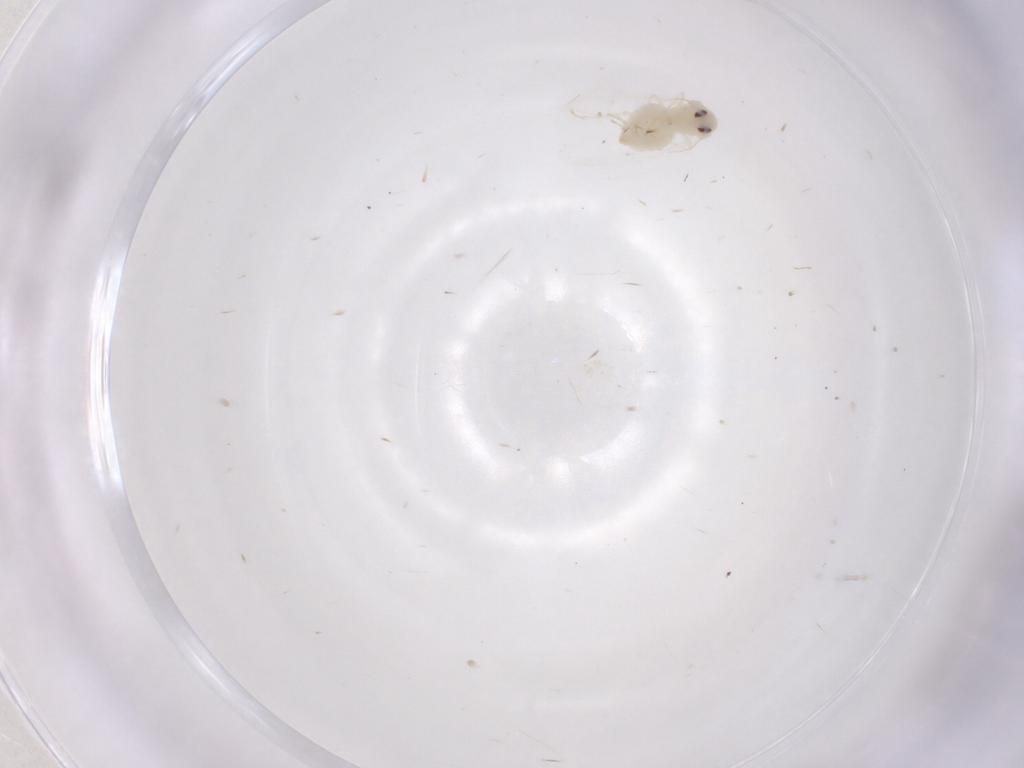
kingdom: Animalia
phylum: Arthropoda
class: Insecta
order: Hemiptera
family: Aleyrodidae
